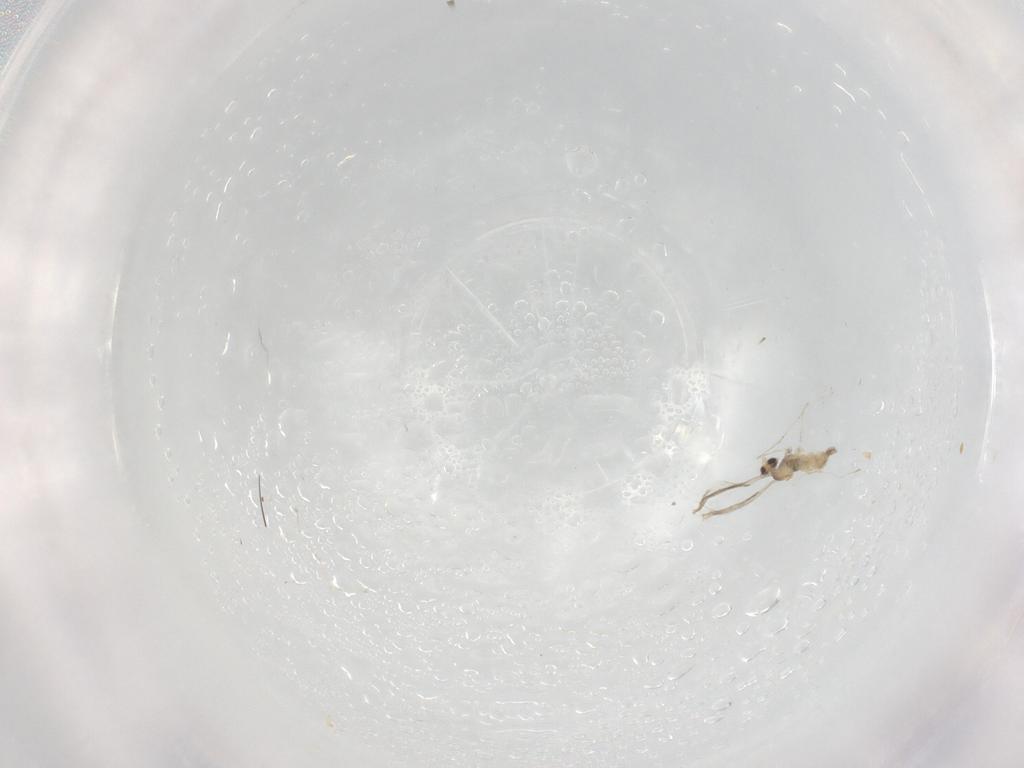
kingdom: Animalia
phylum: Arthropoda
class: Insecta
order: Diptera
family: Cecidomyiidae
